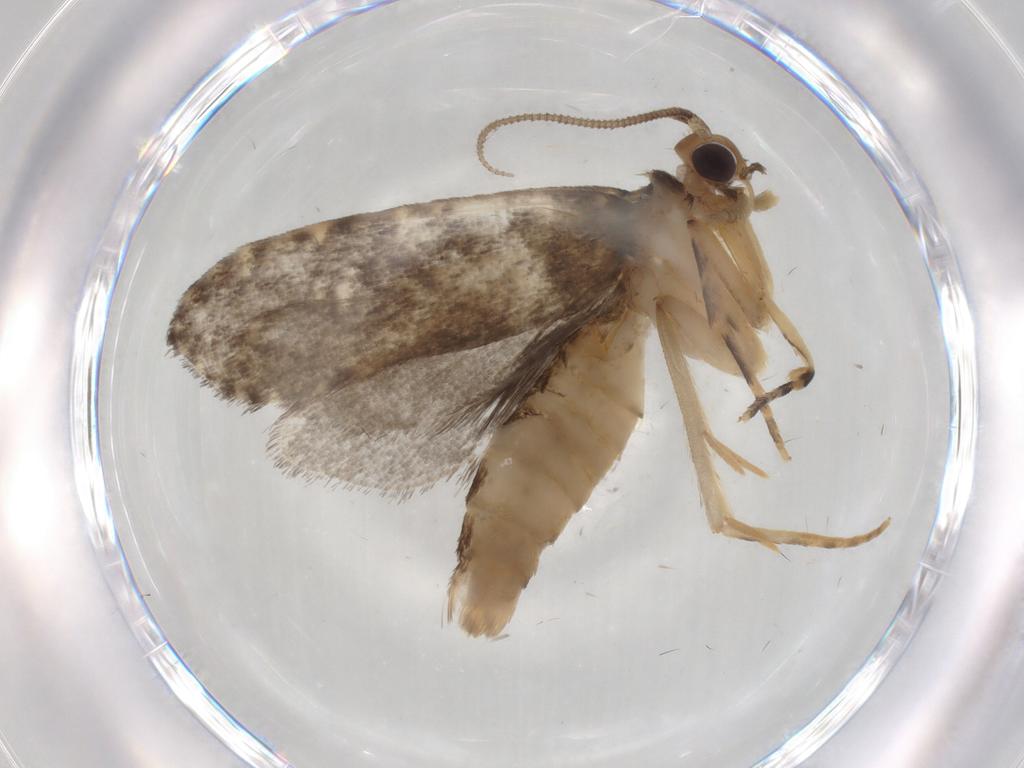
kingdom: Animalia
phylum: Arthropoda
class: Insecta
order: Lepidoptera
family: Tineidae
